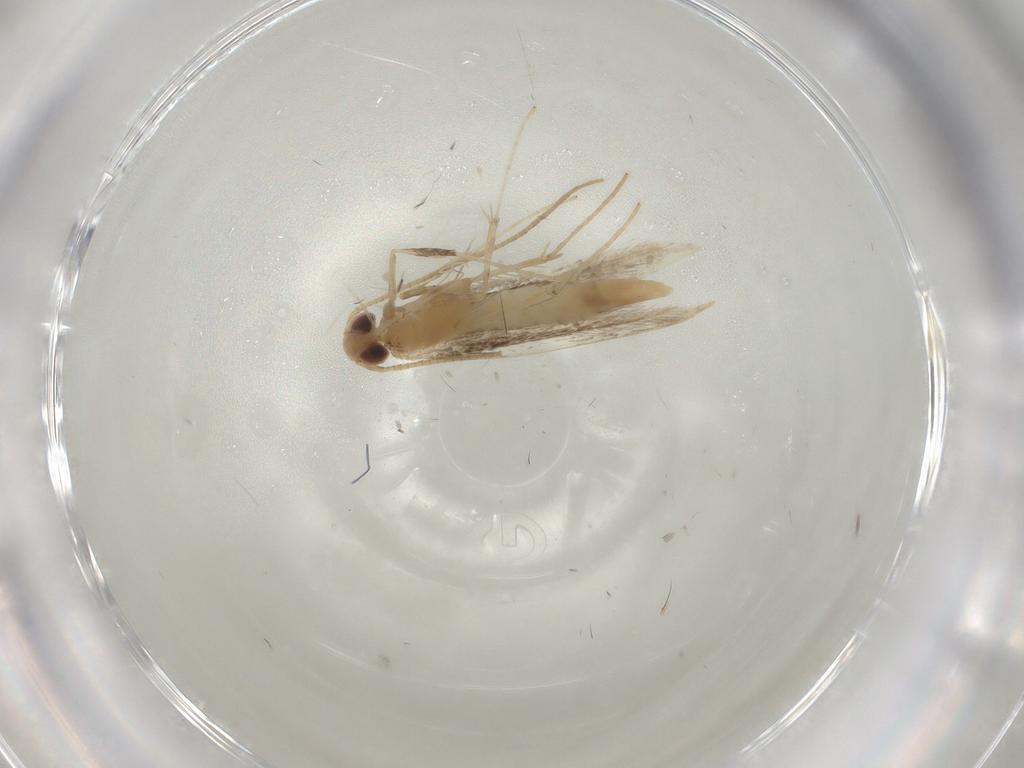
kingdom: Animalia
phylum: Arthropoda
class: Insecta
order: Lepidoptera
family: Gracillariidae
